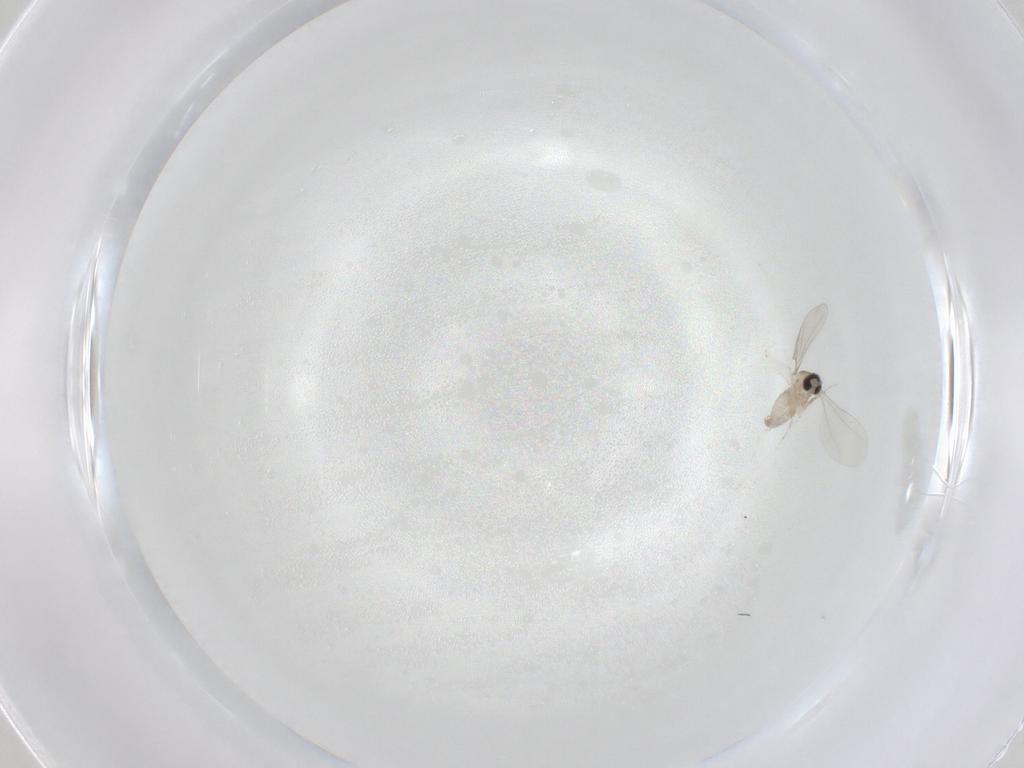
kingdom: Animalia
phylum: Arthropoda
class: Insecta
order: Diptera
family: Cecidomyiidae
